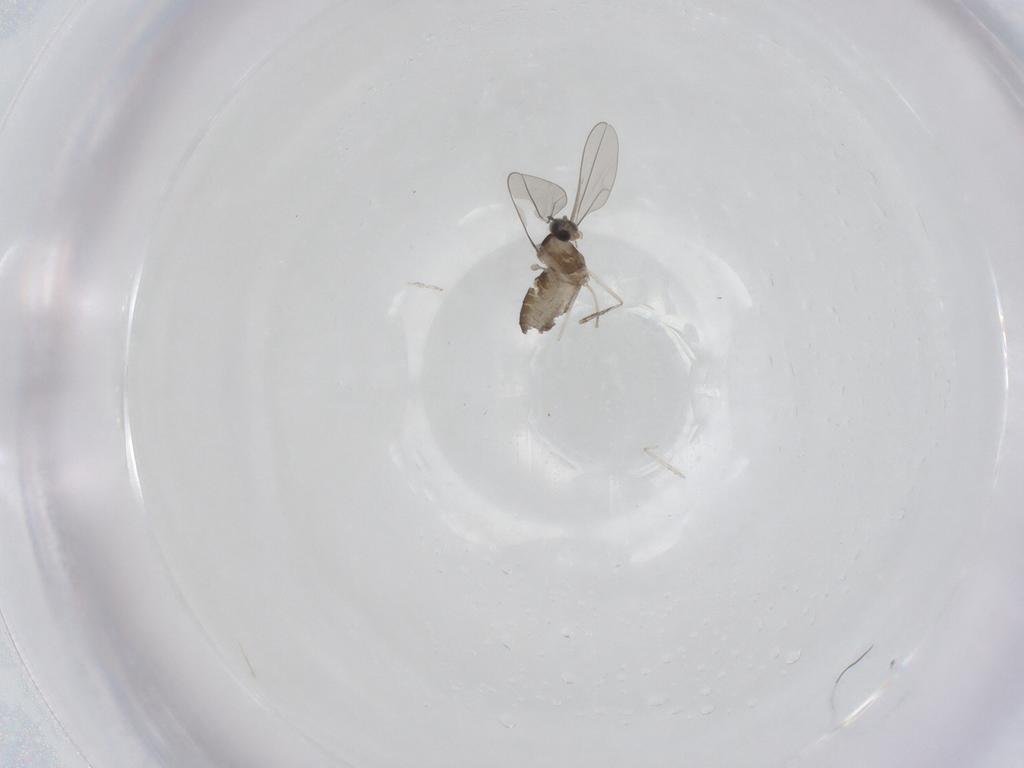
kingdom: Animalia
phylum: Arthropoda
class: Insecta
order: Diptera
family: Cecidomyiidae
